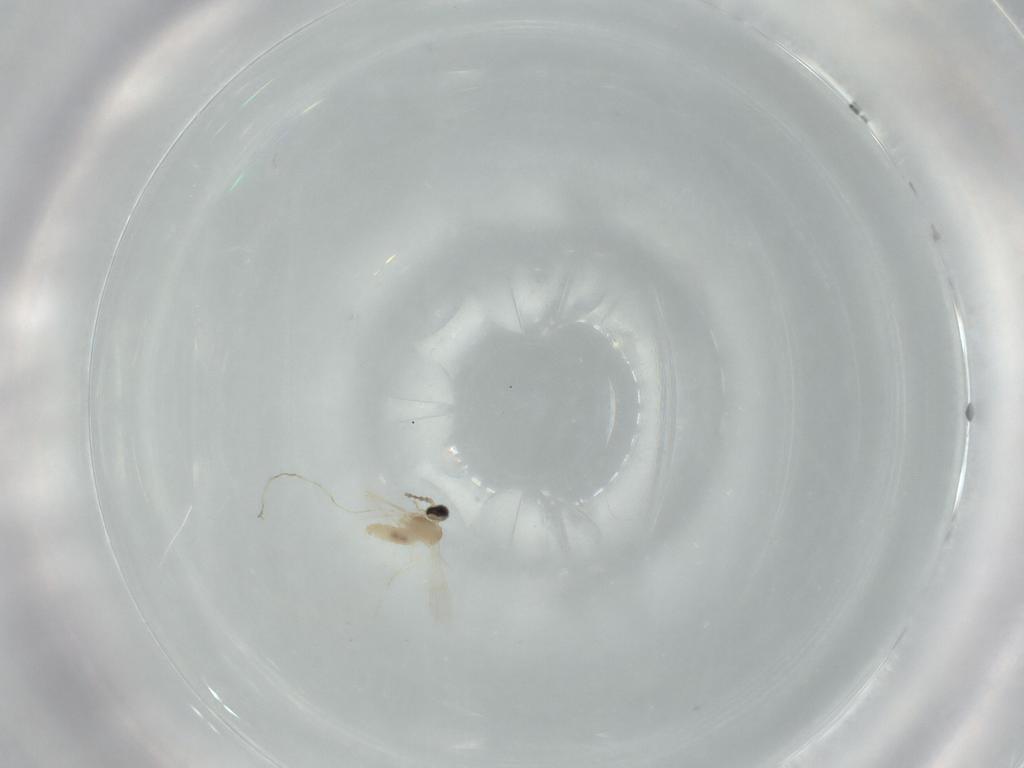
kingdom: Animalia
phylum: Arthropoda
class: Insecta
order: Diptera
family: Cecidomyiidae
